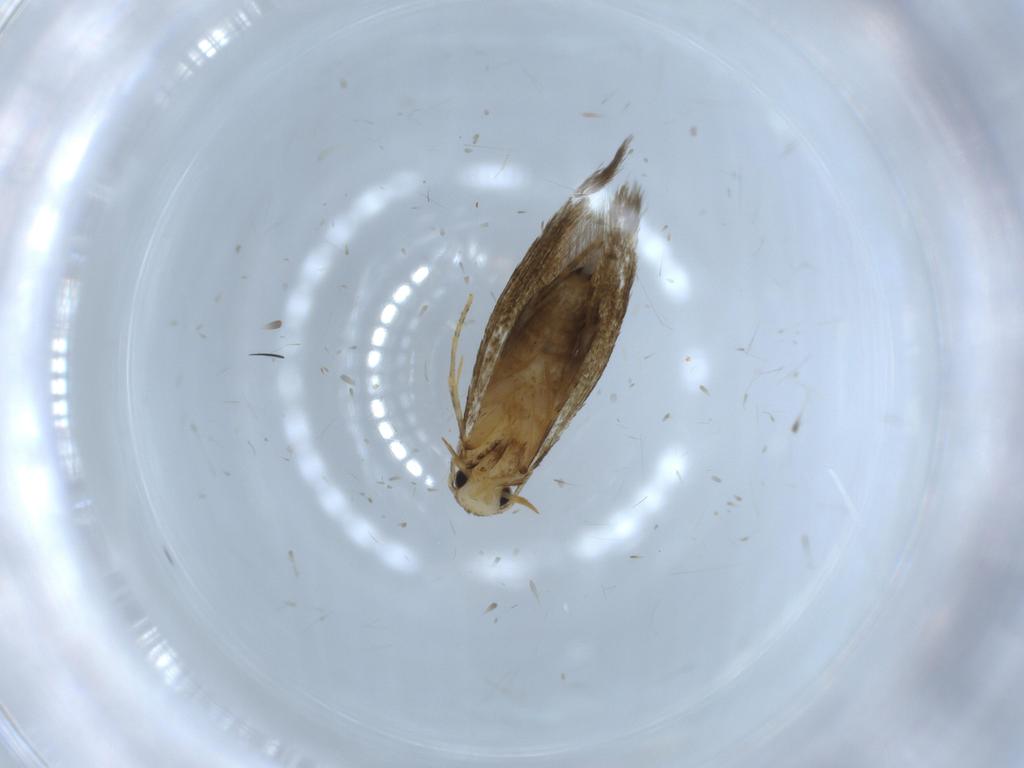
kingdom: Animalia
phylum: Arthropoda
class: Insecta
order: Lepidoptera
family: Tineidae
